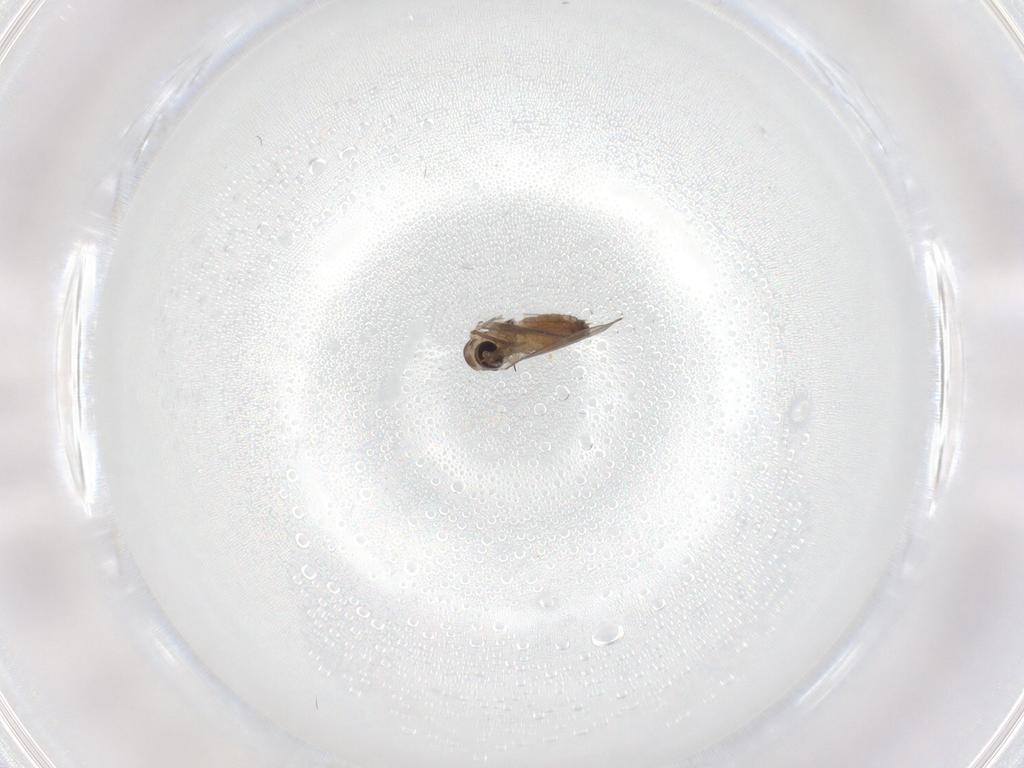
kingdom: Animalia
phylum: Arthropoda
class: Insecta
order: Diptera
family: Psychodidae
